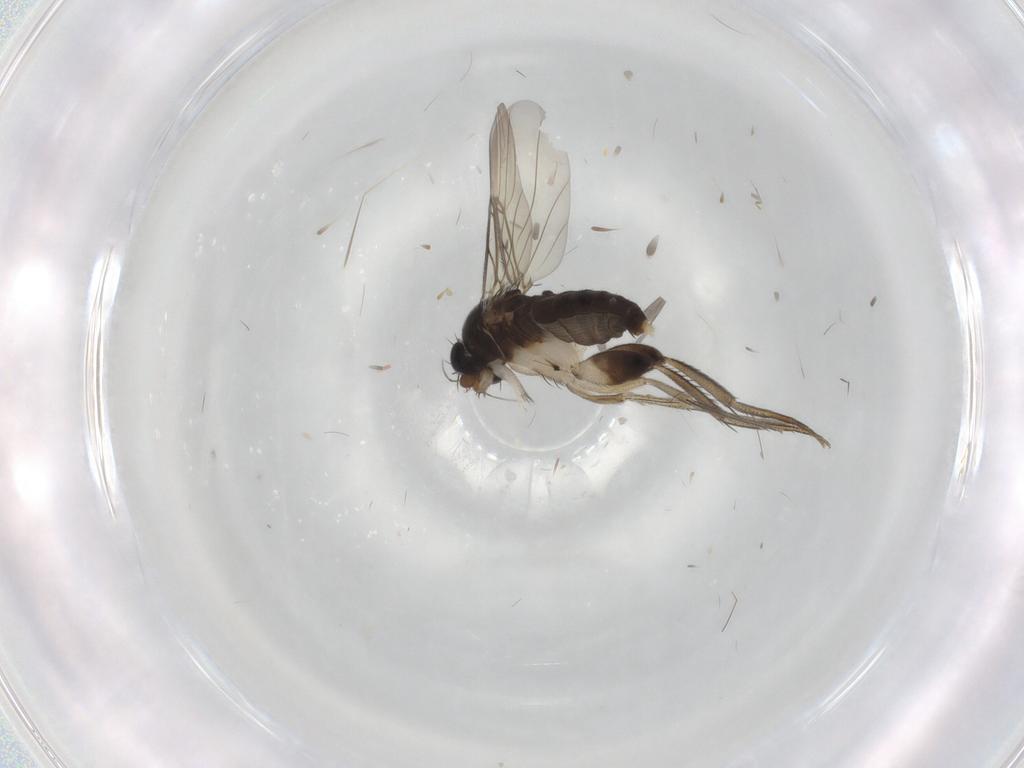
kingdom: Animalia
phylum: Arthropoda
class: Insecta
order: Diptera
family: Phoridae
